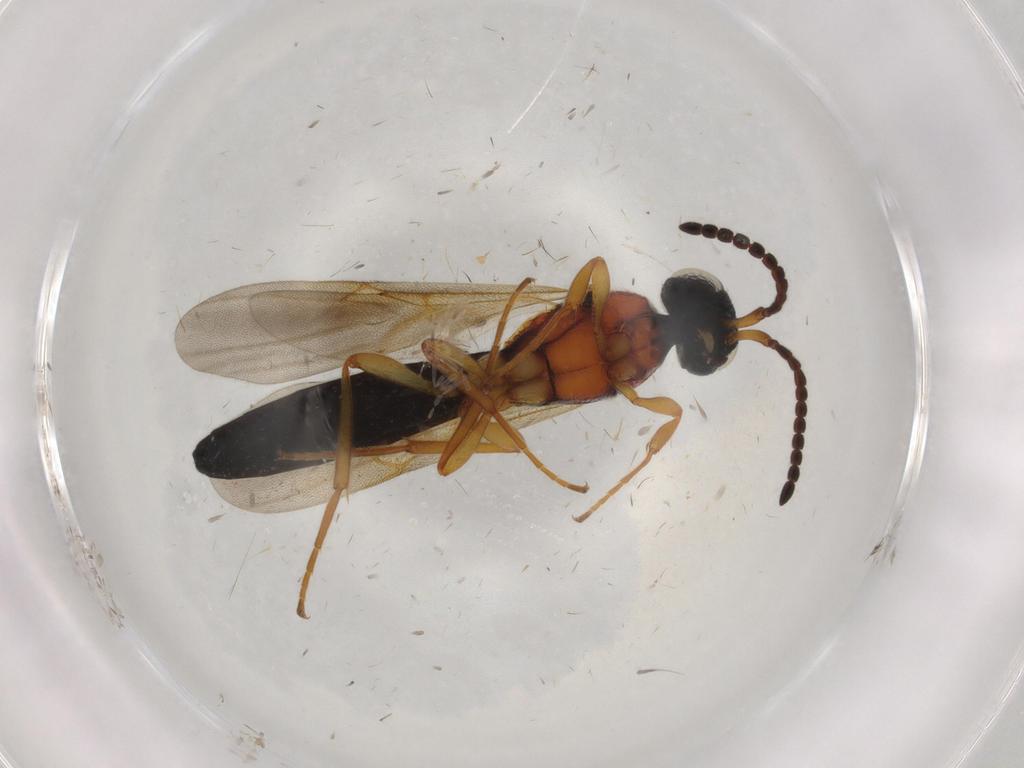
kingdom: Animalia
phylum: Arthropoda
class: Insecta
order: Hymenoptera
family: Scelionidae
